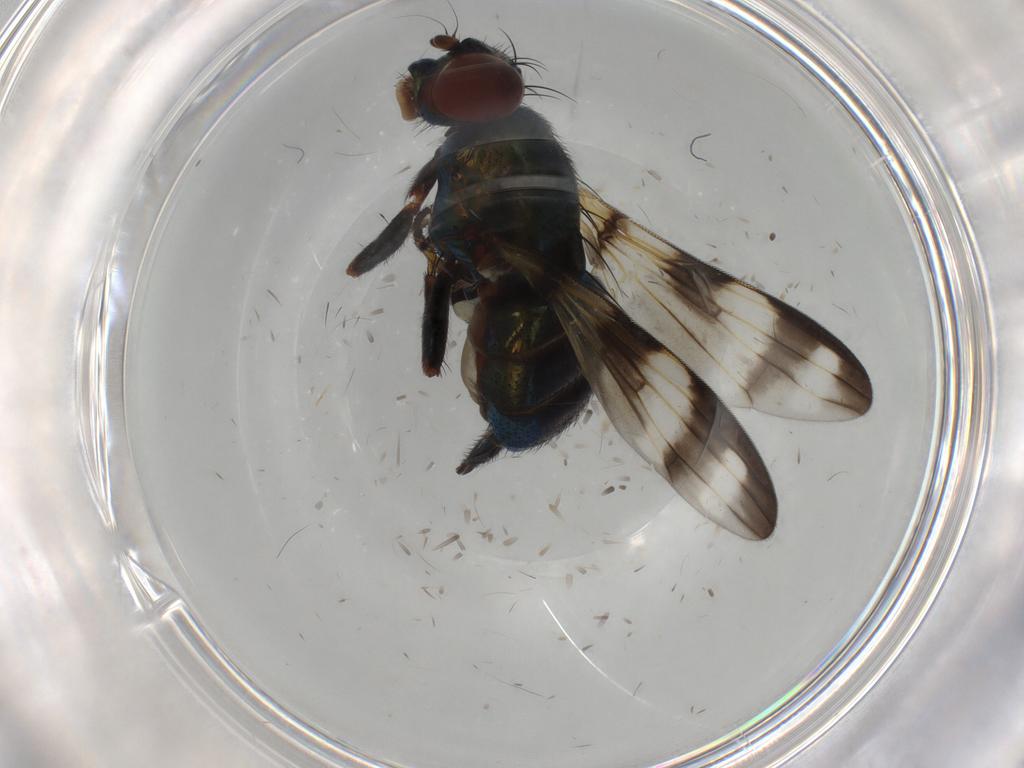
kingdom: Animalia
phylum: Arthropoda
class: Insecta
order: Diptera
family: Ulidiidae
